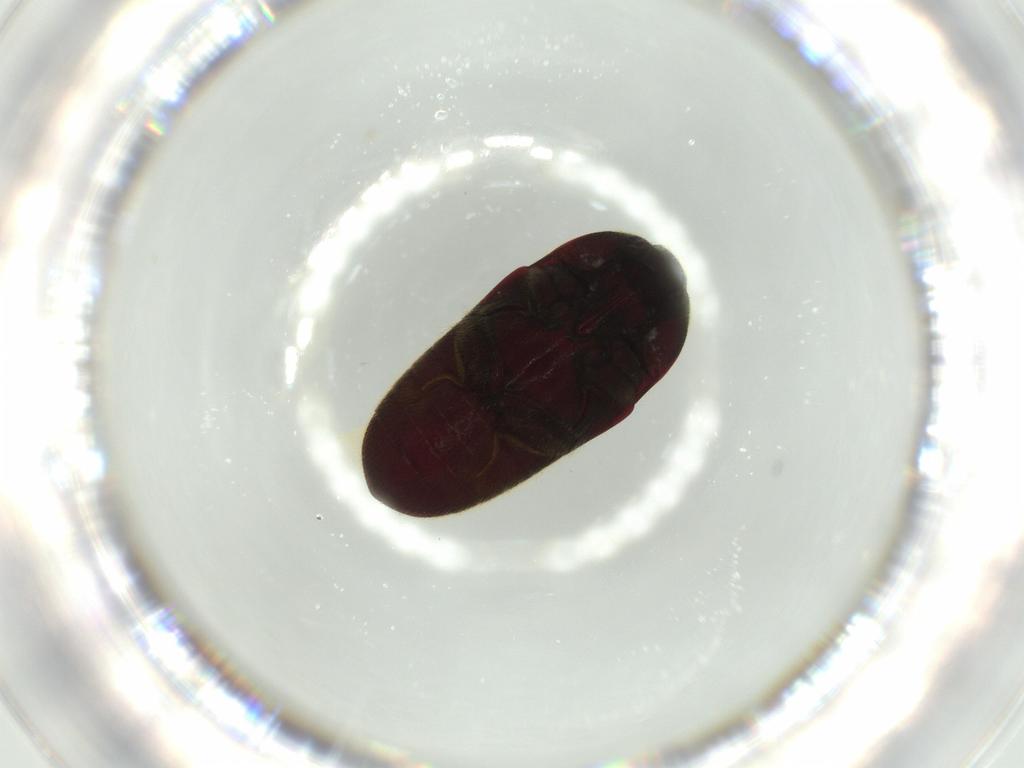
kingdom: Animalia
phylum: Arthropoda
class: Insecta
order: Coleoptera
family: Throscidae
